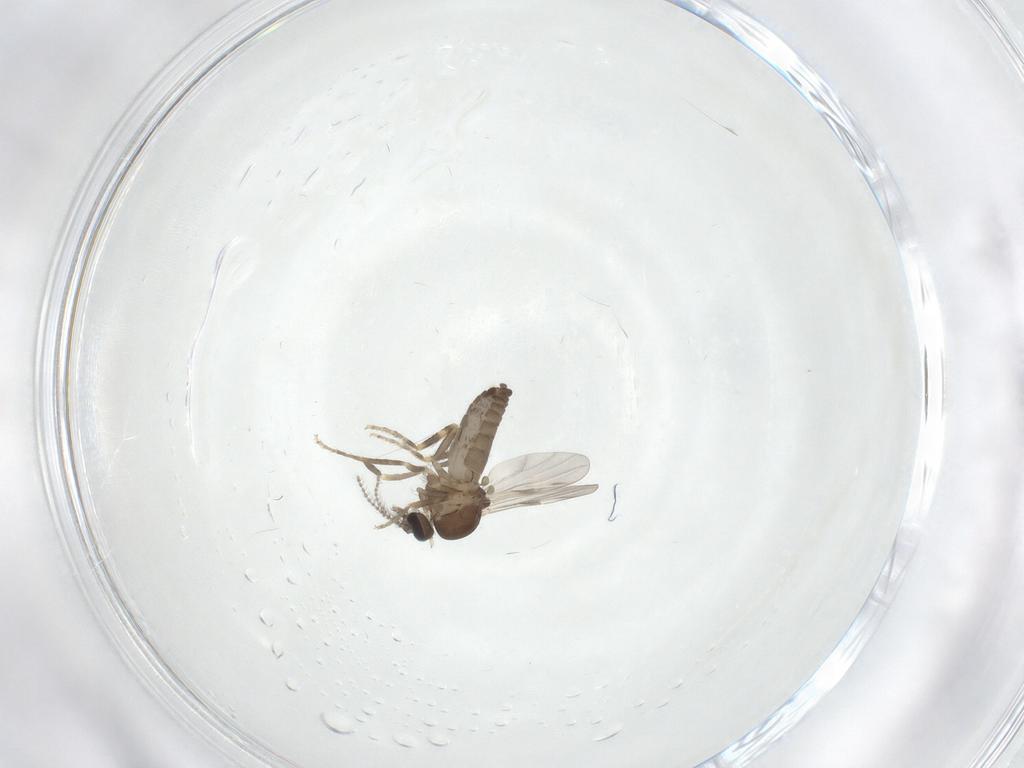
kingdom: Animalia
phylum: Arthropoda
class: Insecta
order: Diptera
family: Ceratopogonidae
